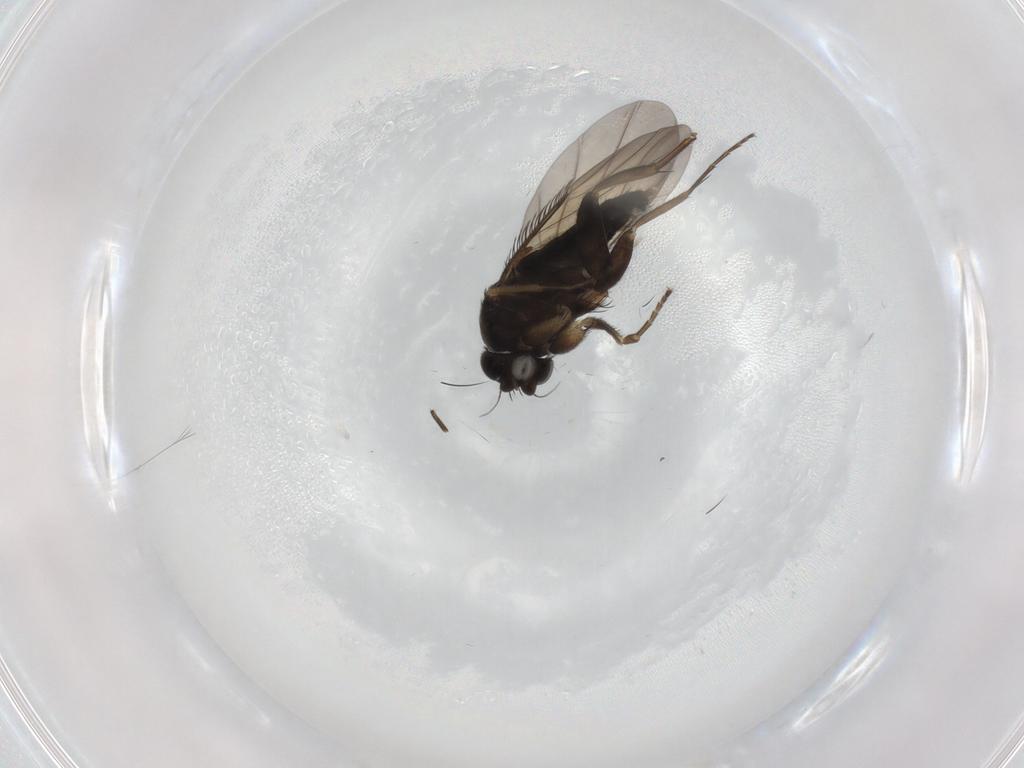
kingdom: Animalia
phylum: Arthropoda
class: Insecta
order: Diptera
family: Phoridae
